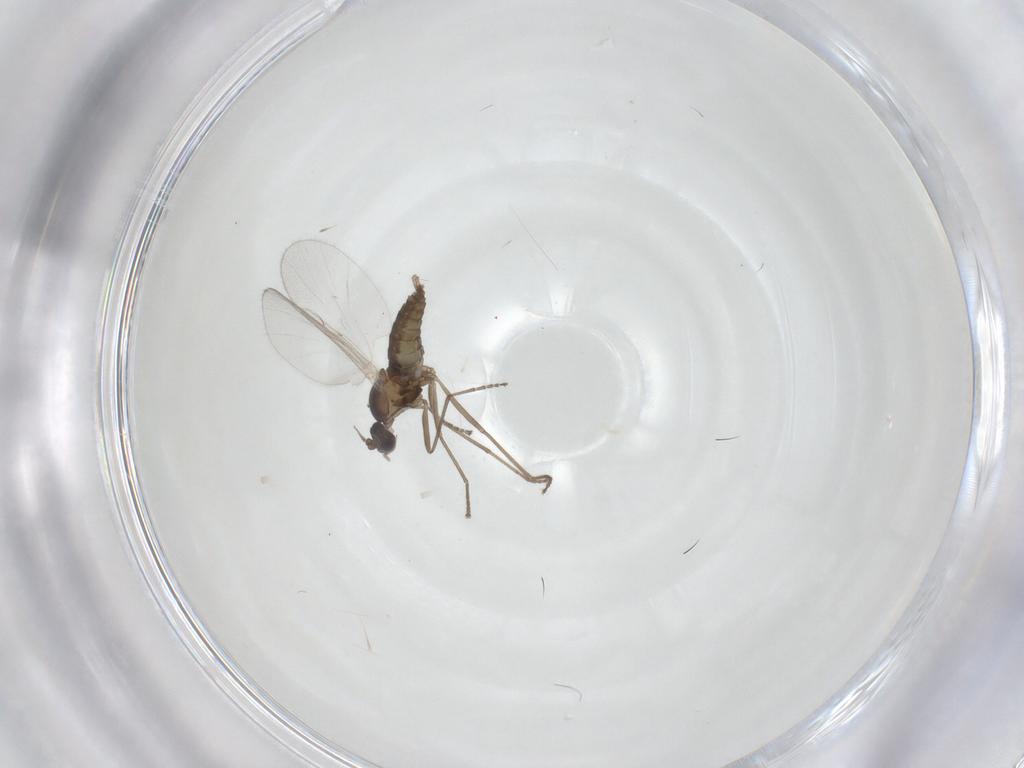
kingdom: Animalia
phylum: Arthropoda
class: Insecta
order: Diptera
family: Cecidomyiidae
